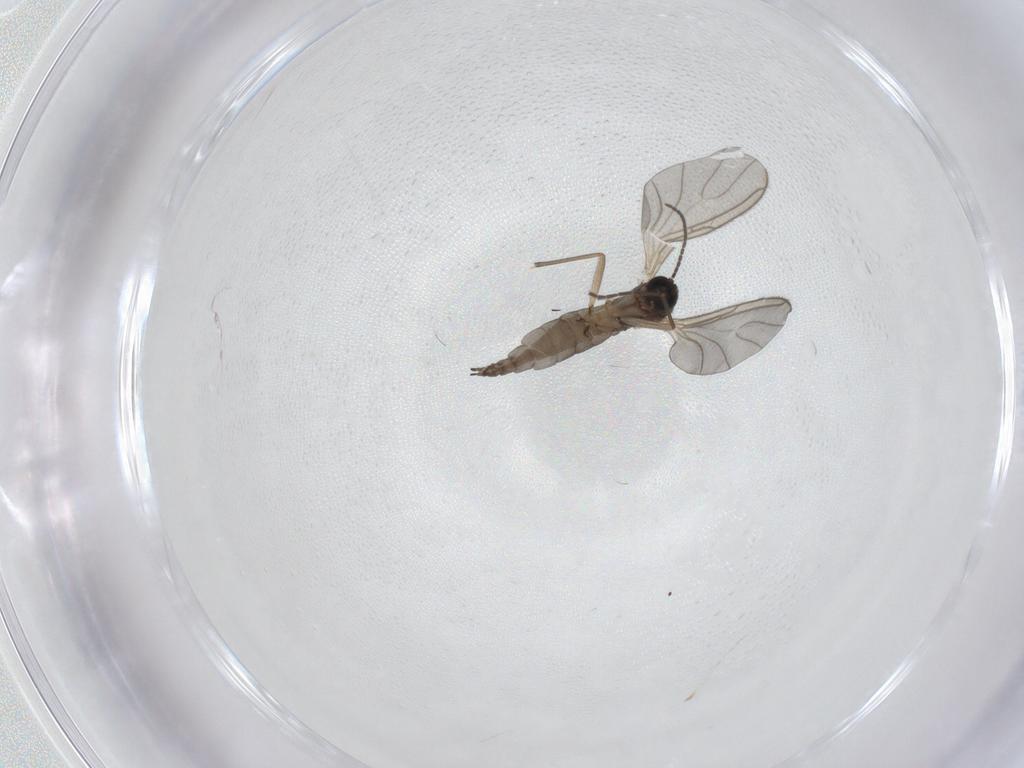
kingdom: Animalia
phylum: Arthropoda
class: Insecta
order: Diptera
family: Sciaridae
